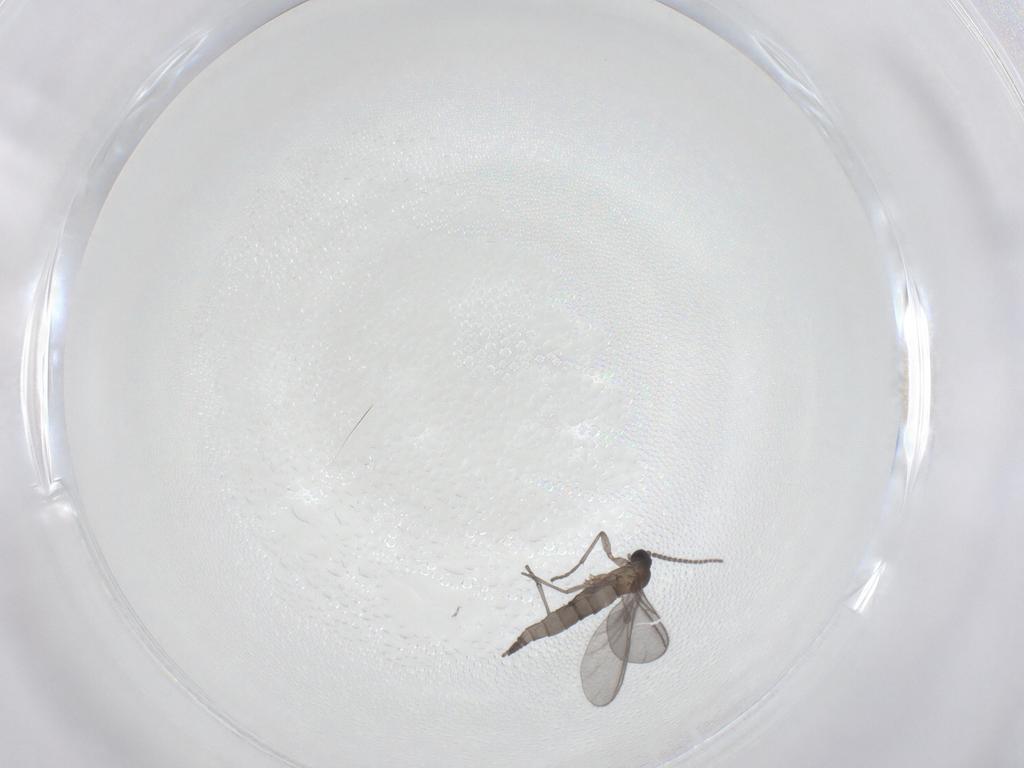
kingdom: Animalia
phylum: Arthropoda
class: Insecta
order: Diptera
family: Sciaridae
